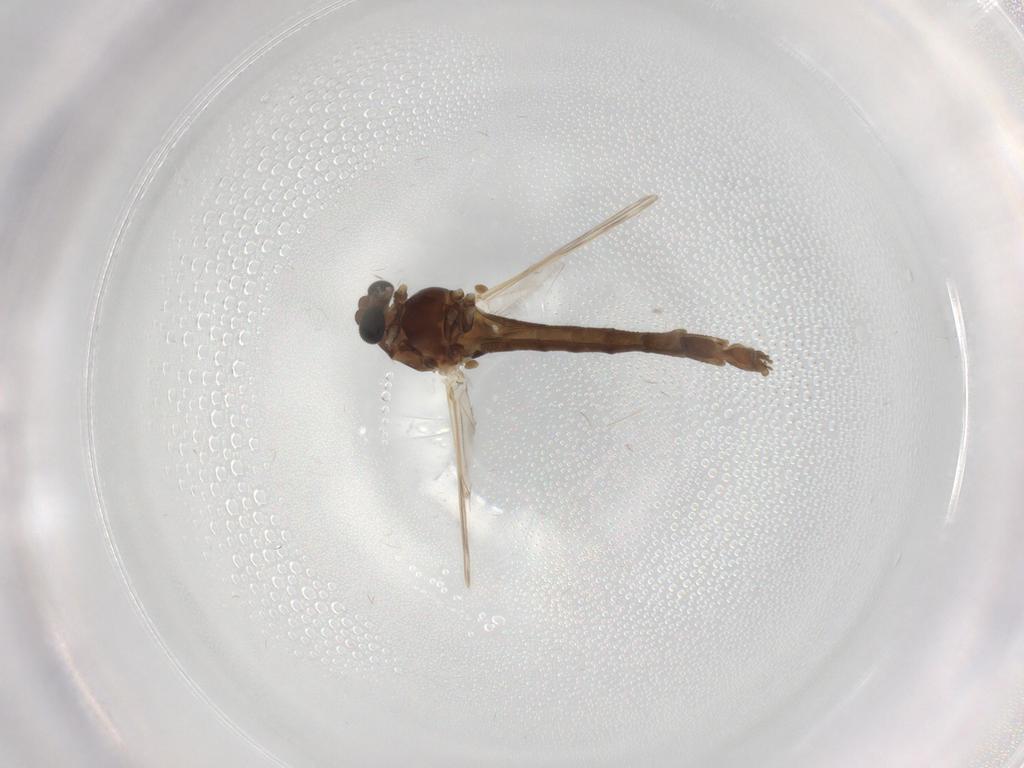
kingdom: Animalia
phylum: Arthropoda
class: Insecta
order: Diptera
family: Chironomidae
